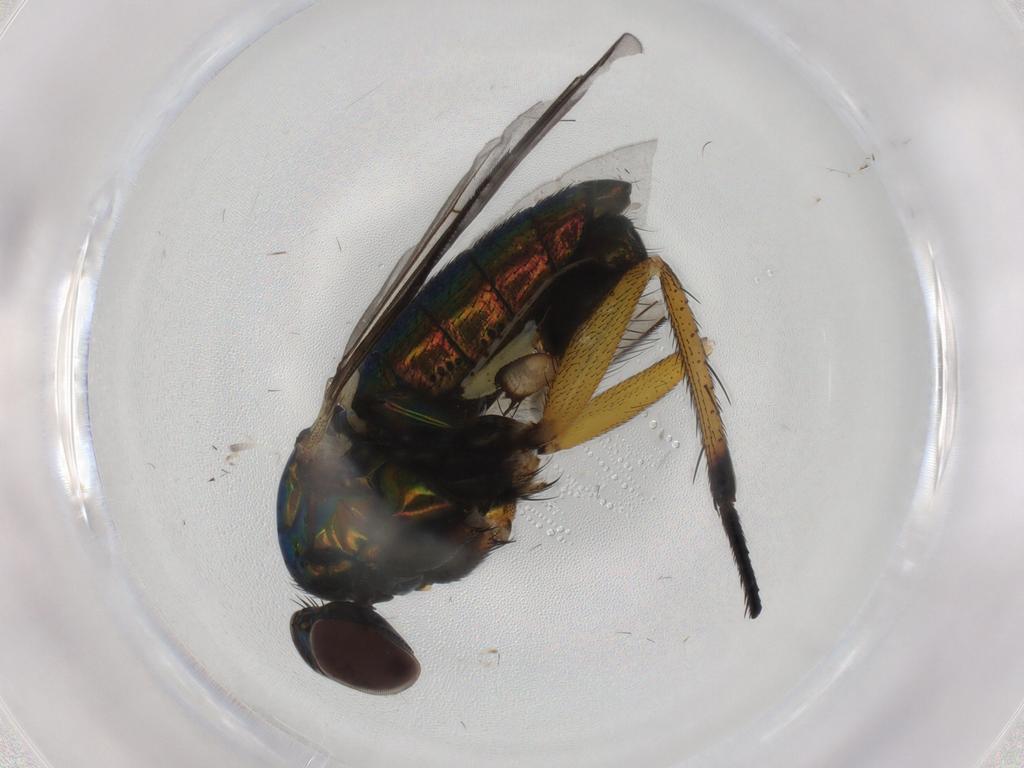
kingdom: Animalia
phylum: Arthropoda
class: Insecta
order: Diptera
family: Dolichopodidae
